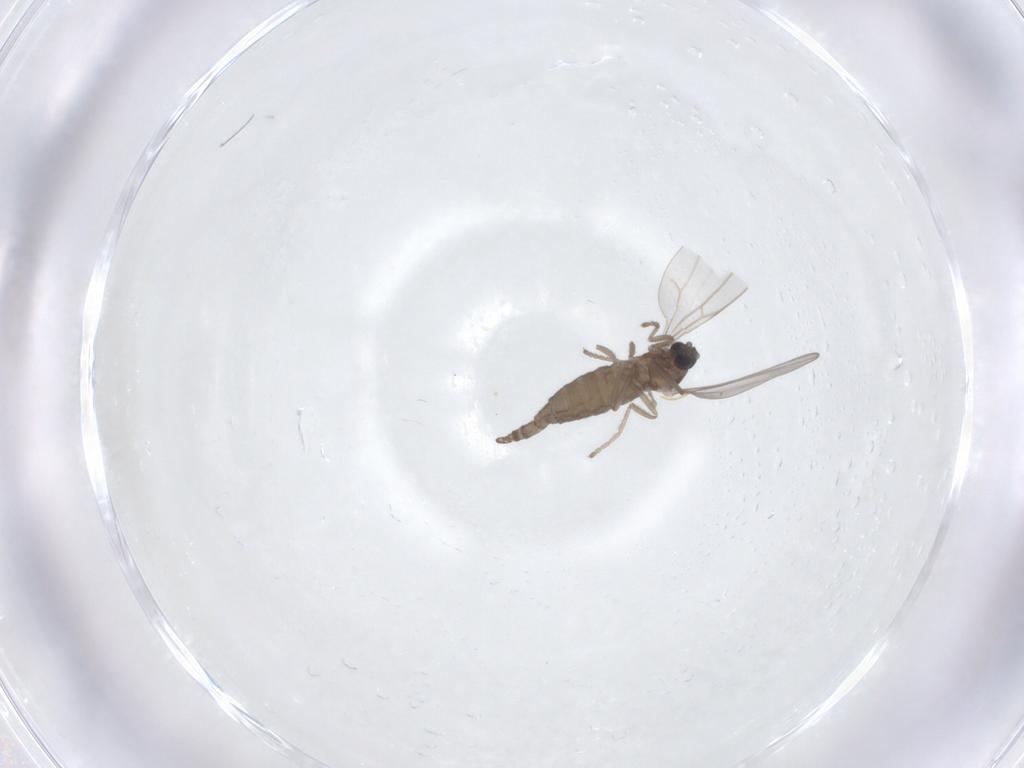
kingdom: Animalia
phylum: Arthropoda
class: Insecta
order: Diptera
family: Cecidomyiidae
